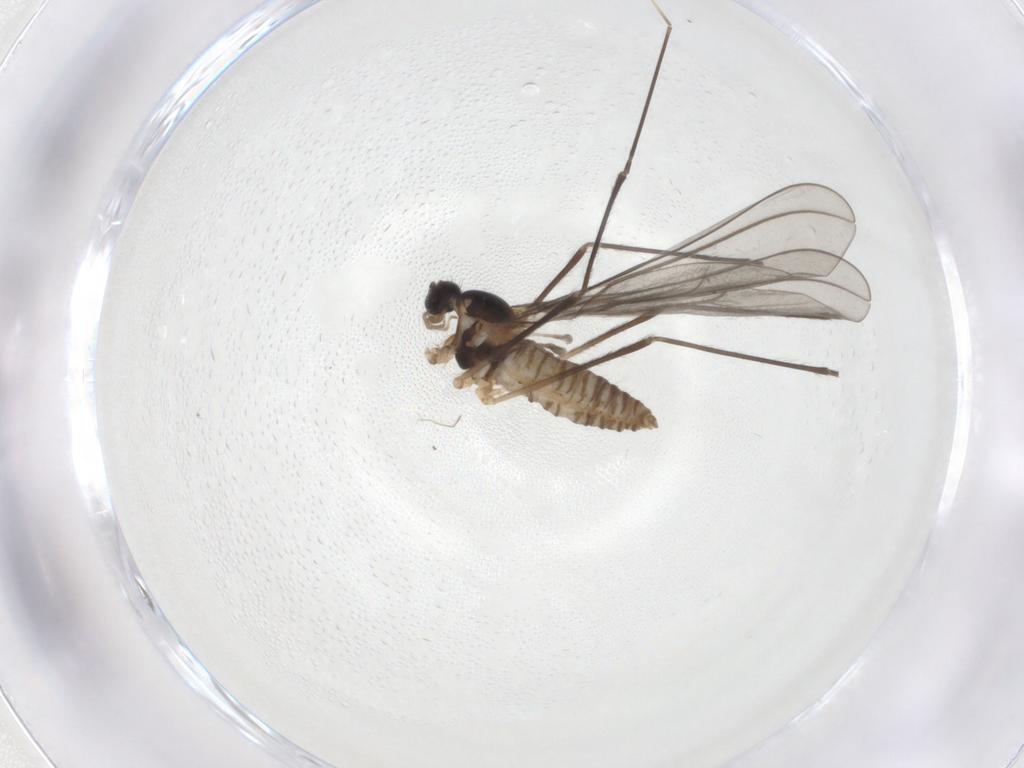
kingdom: Animalia
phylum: Arthropoda
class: Insecta
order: Diptera
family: Cecidomyiidae
